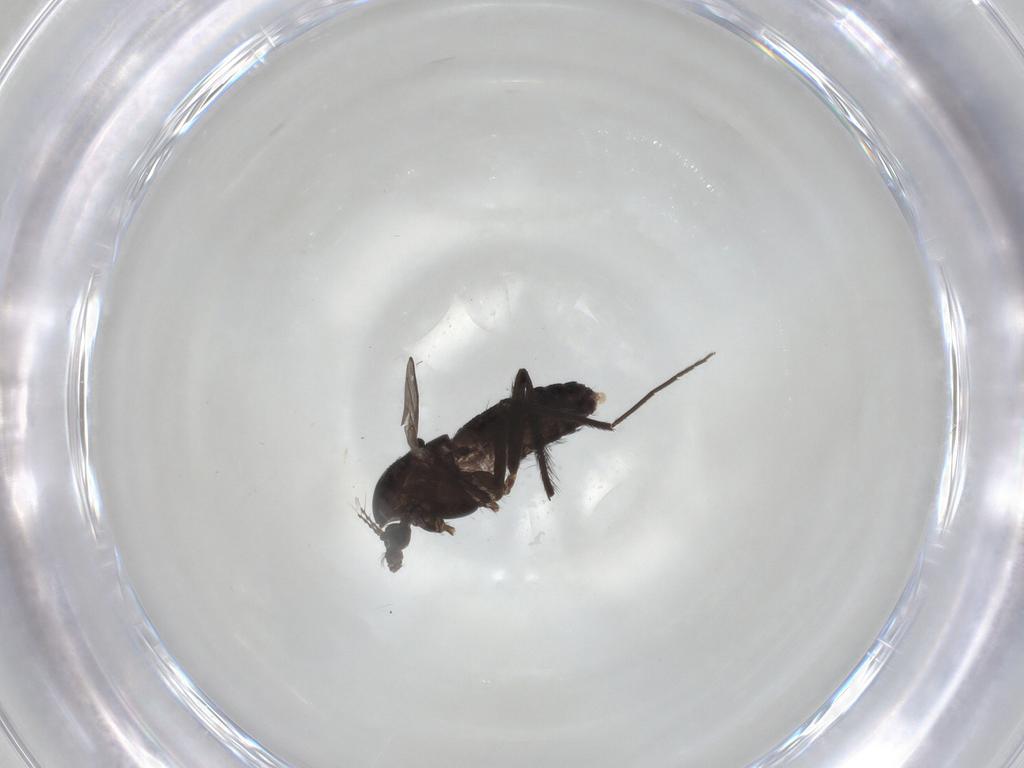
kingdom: Animalia
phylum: Arthropoda
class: Insecta
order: Diptera
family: Chironomidae
